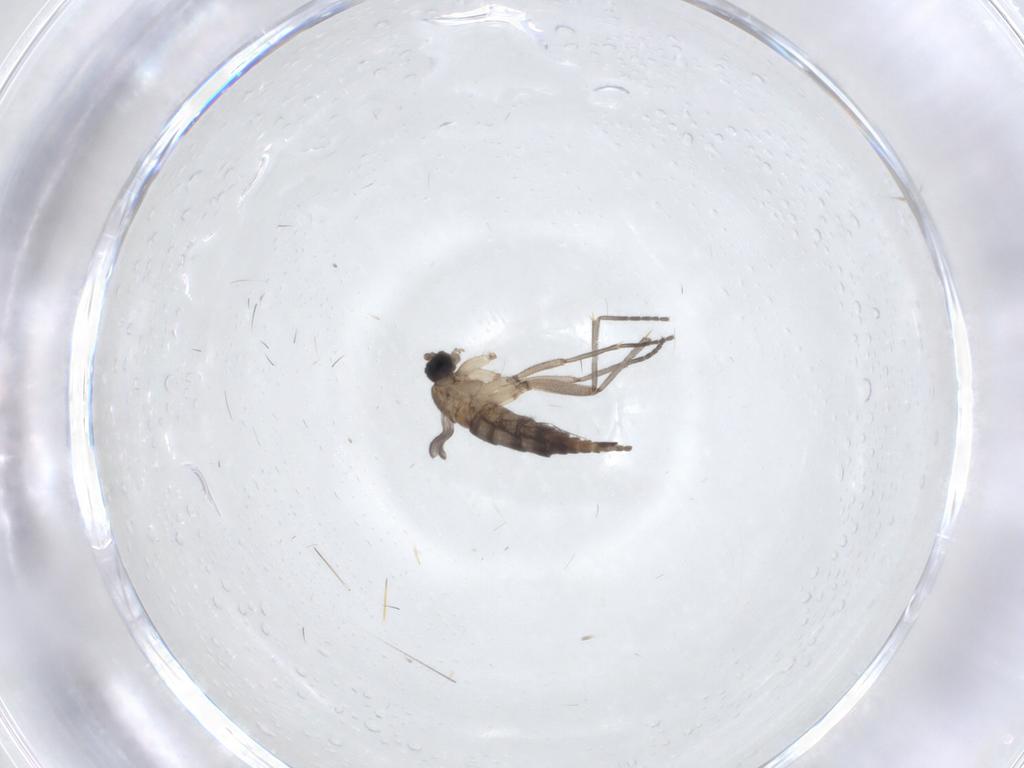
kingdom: Animalia
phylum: Arthropoda
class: Insecta
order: Diptera
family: Sciaridae
